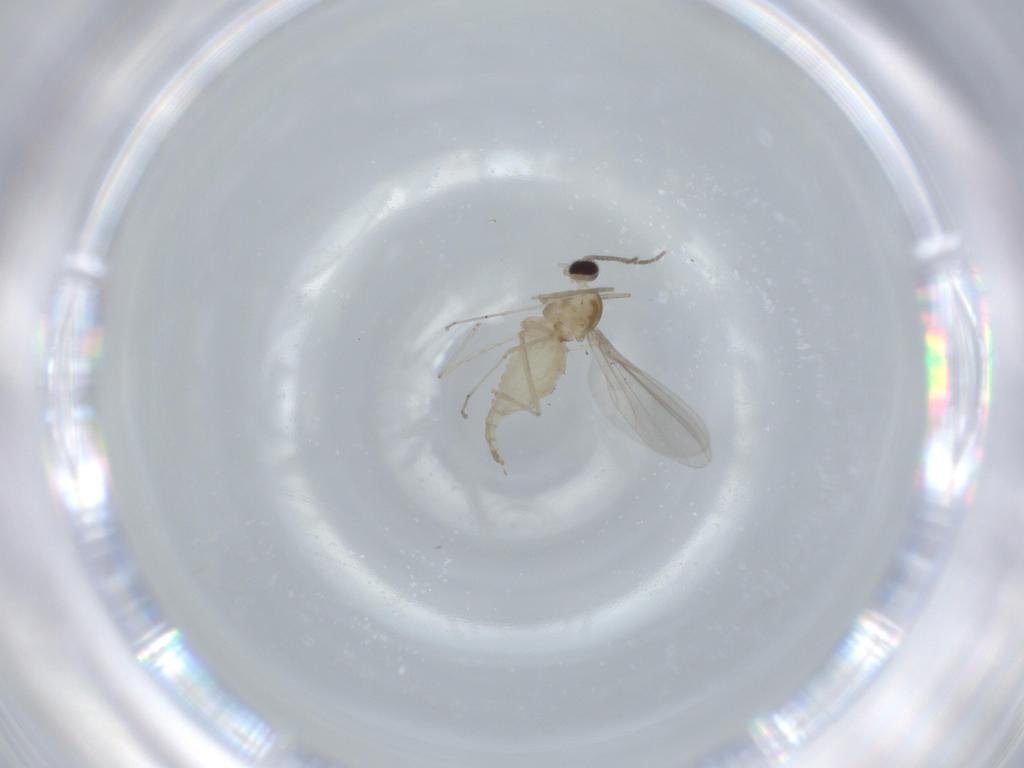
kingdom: Animalia
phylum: Arthropoda
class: Insecta
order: Diptera
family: Cecidomyiidae
